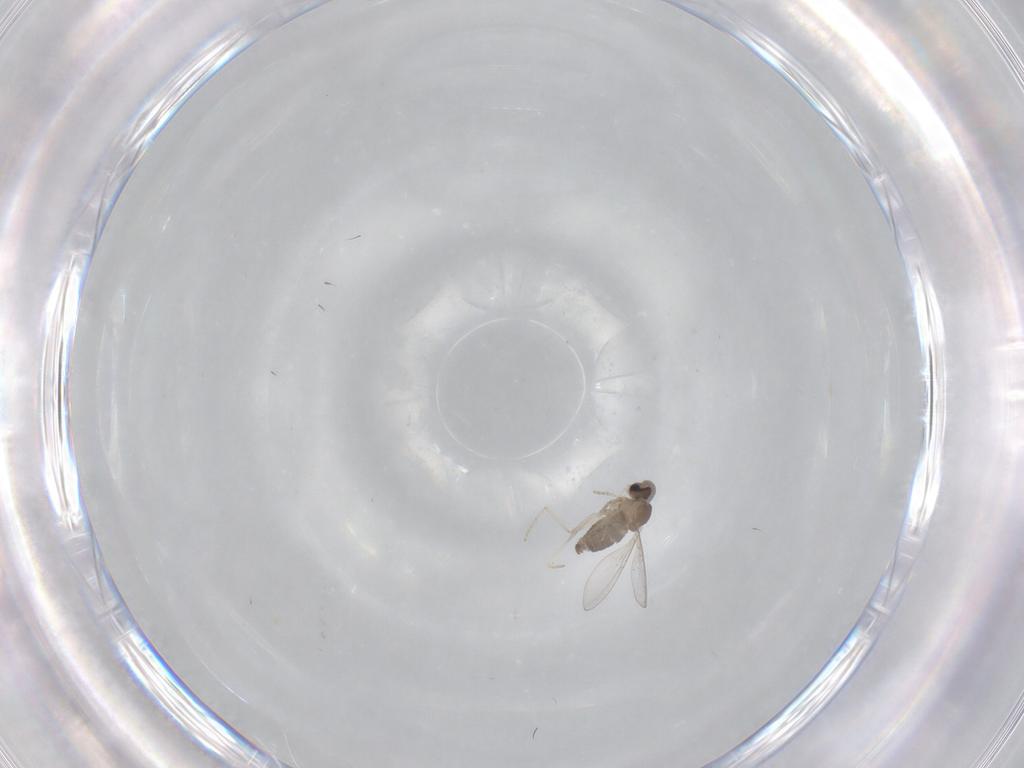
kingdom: Animalia
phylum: Arthropoda
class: Insecta
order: Diptera
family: Cecidomyiidae
